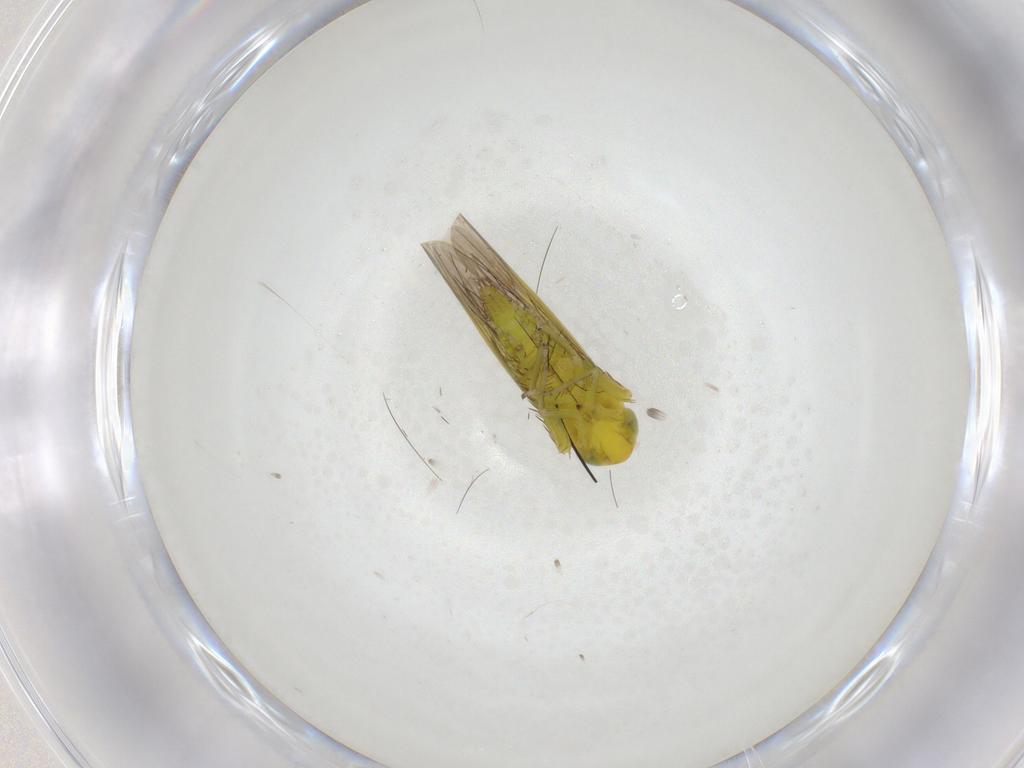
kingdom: Animalia
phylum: Arthropoda
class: Insecta
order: Hemiptera
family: Cicadellidae
